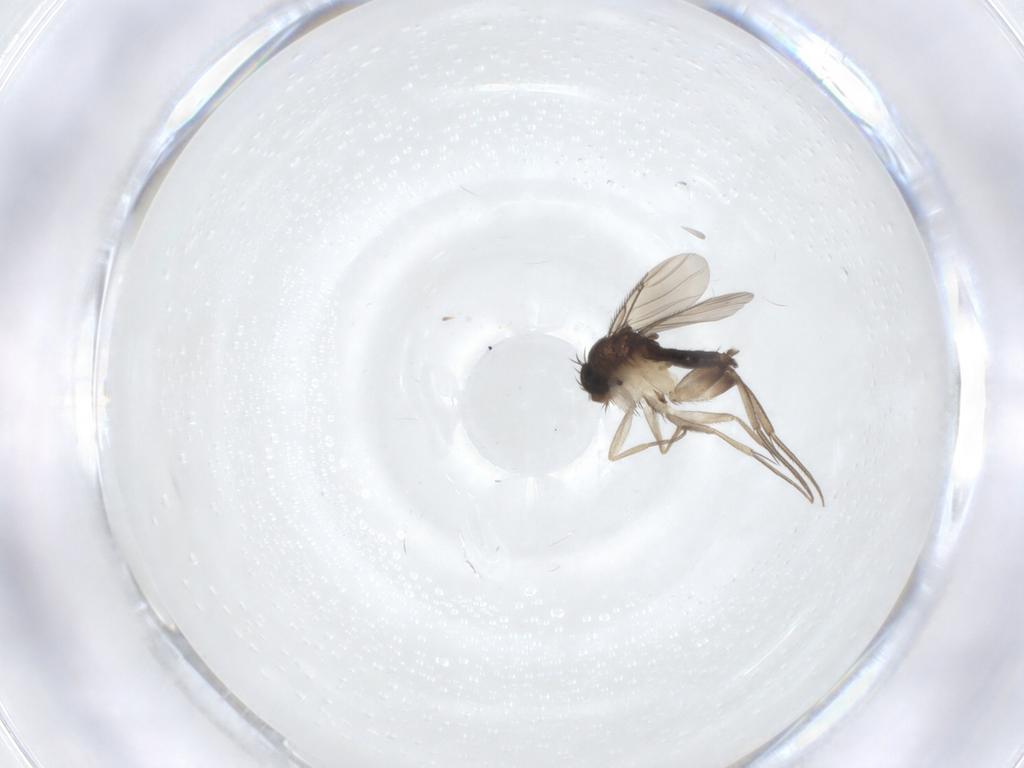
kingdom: Animalia
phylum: Arthropoda
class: Insecta
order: Diptera
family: Phoridae
